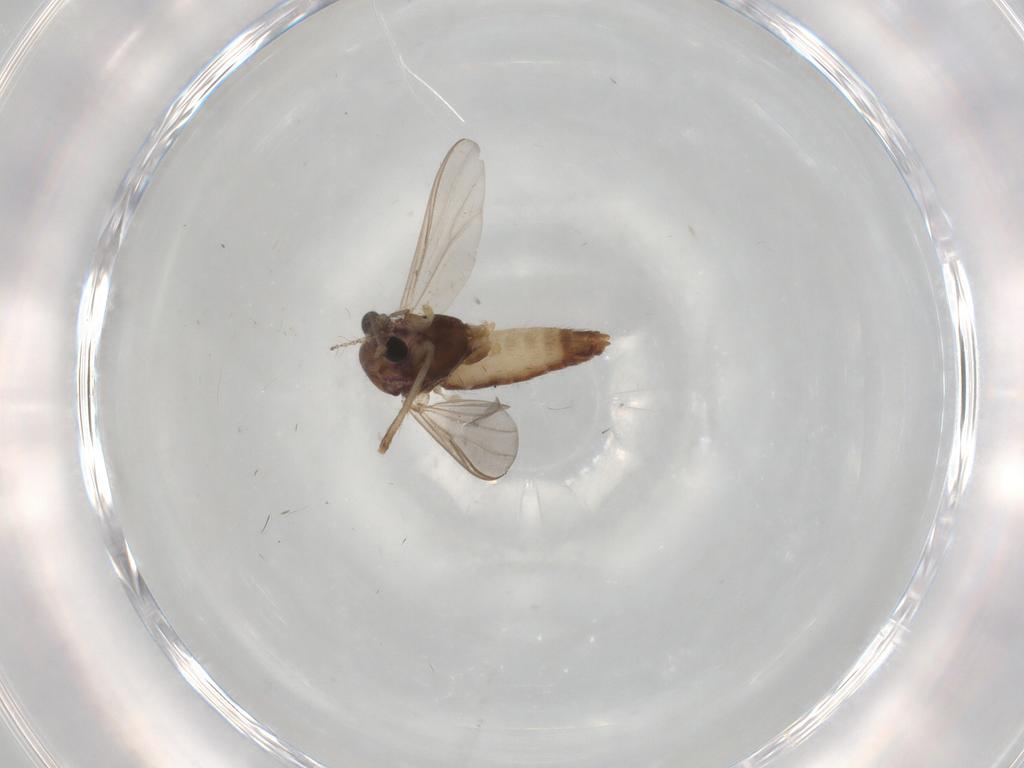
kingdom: Animalia
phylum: Arthropoda
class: Insecta
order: Diptera
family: Chironomidae
